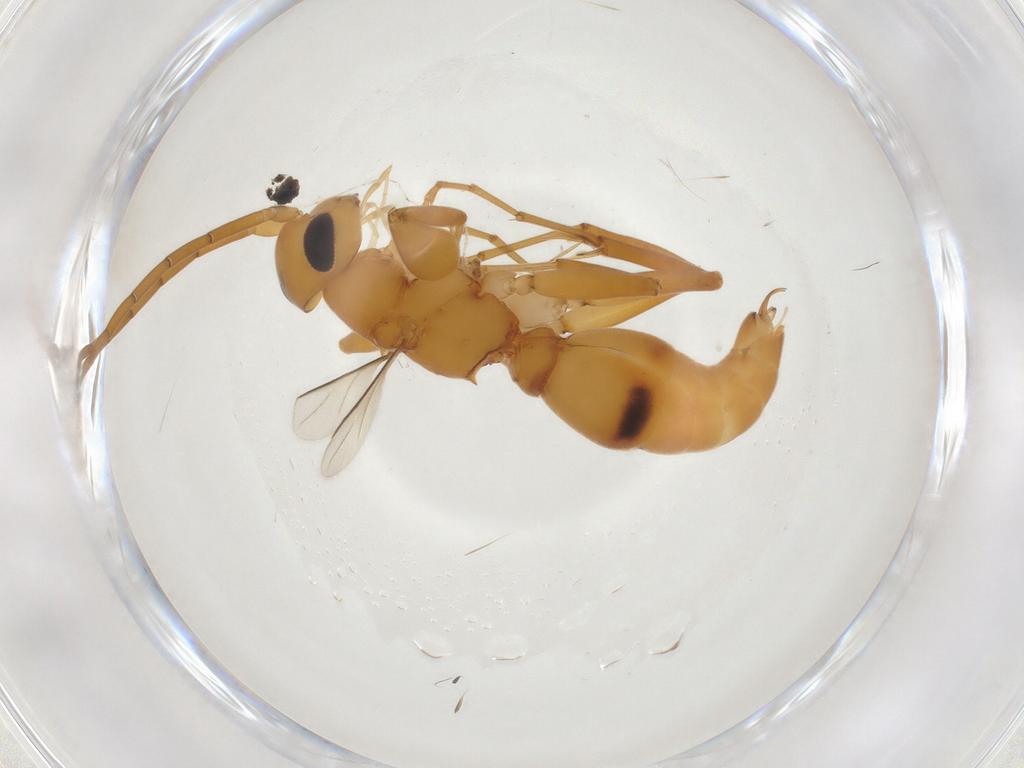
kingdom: Animalia
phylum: Arthropoda
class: Insecta
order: Hymenoptera
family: Rhopalosomatidae
